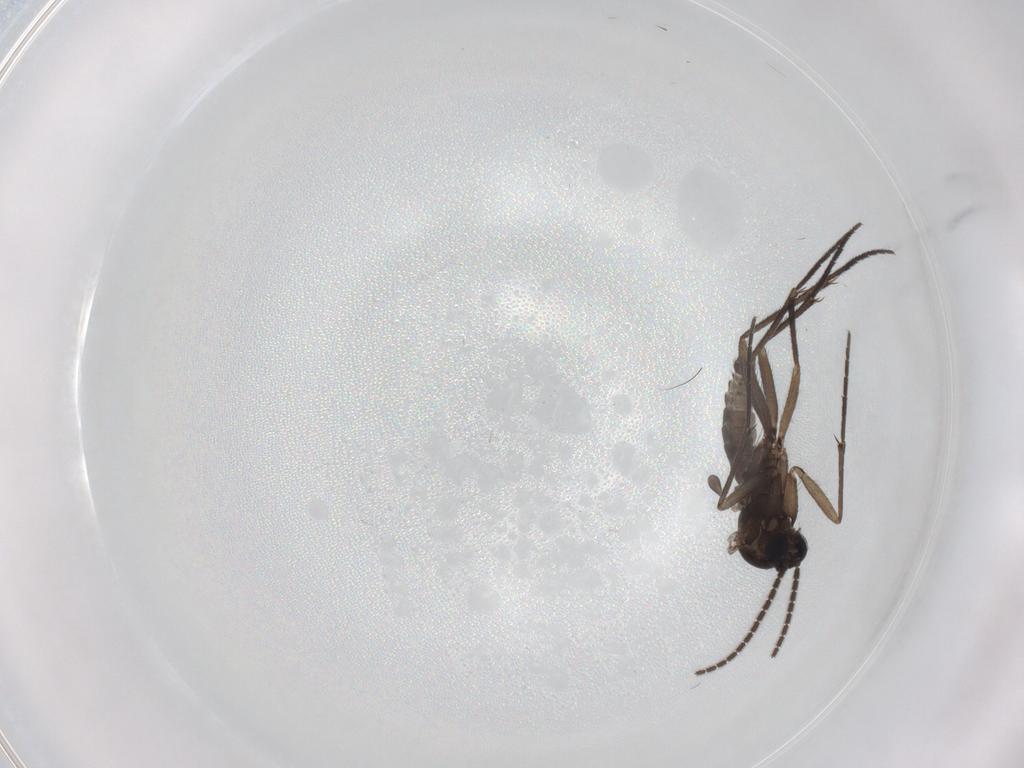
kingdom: Animalia
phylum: Arthropoda
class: Insecta
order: Diptera
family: Sciaridae
